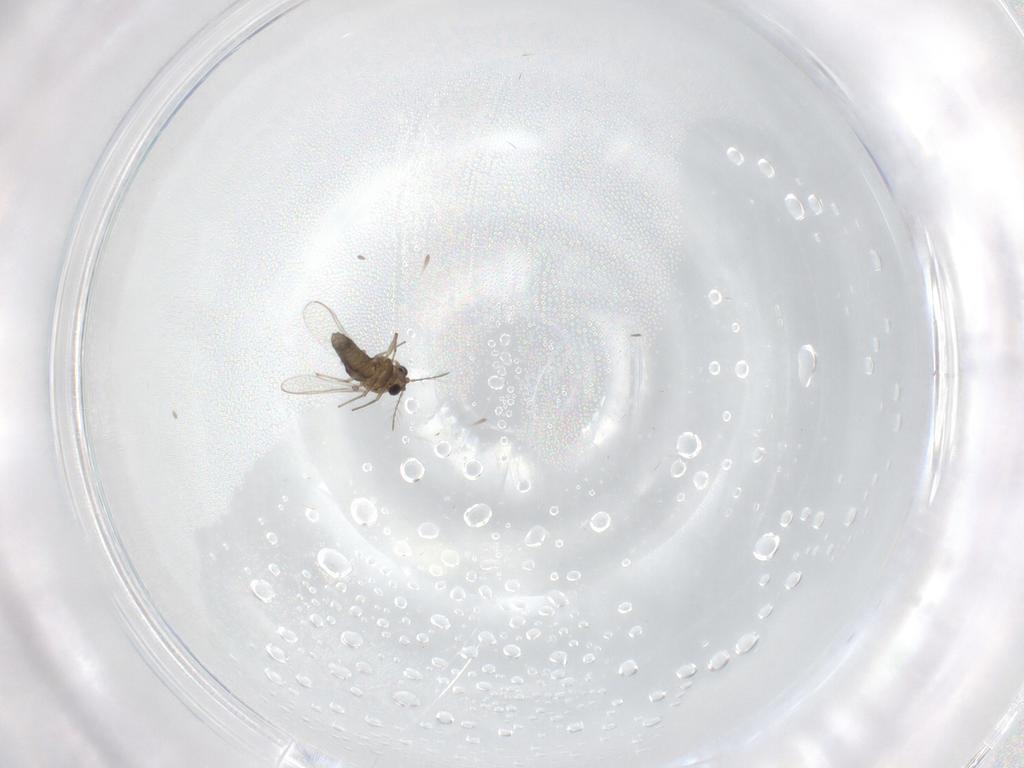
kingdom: Animalia
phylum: Arthropoda
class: Insecta
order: Diptera
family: Chironomidae
